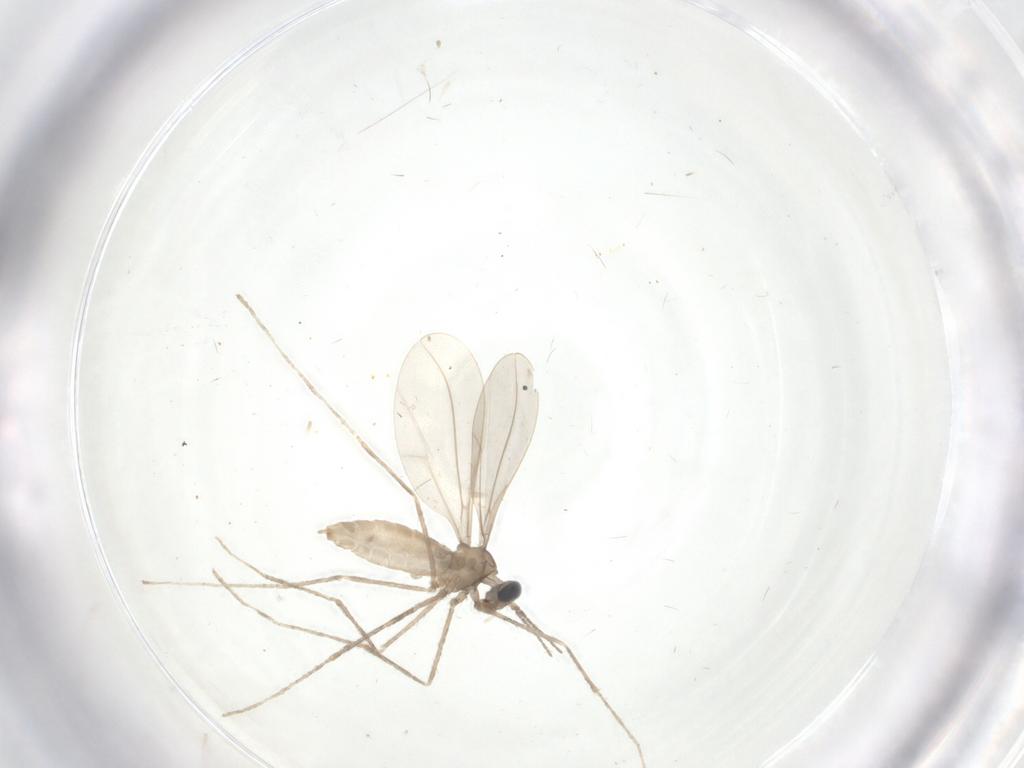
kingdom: Animalia
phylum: Arthropoda
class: Insecta
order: Diptera
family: Cecidomyiidae
